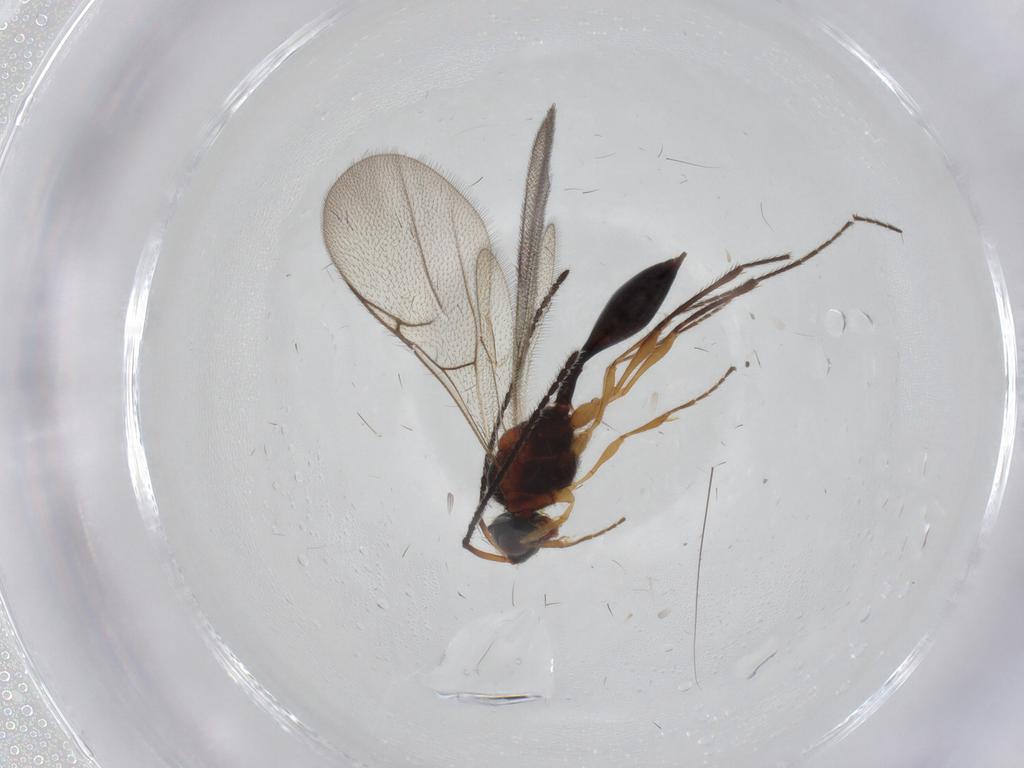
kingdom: Animalia
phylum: Arthropoda
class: Insecta
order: Hymenoptera
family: Diapriidae
